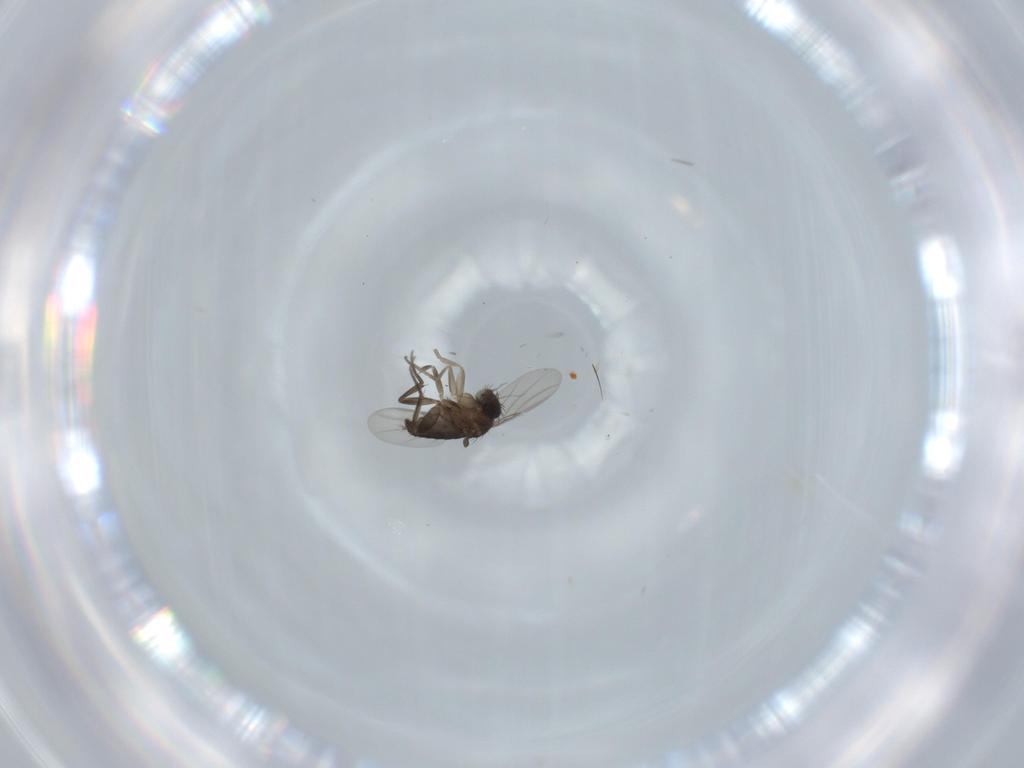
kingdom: Animalia
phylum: Arthropoda
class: Insecta
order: Diptera
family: Phoridae
